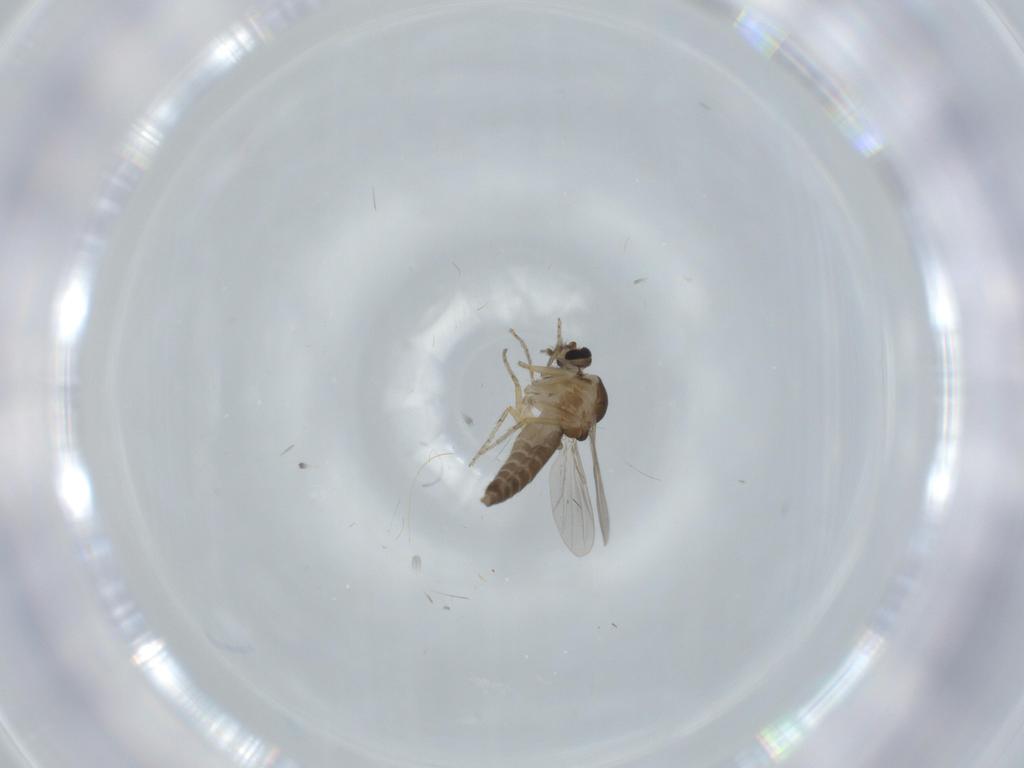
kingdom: Animalia
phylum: Arthropoda
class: Insecta
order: Diptera
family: Ceratopogonidae
